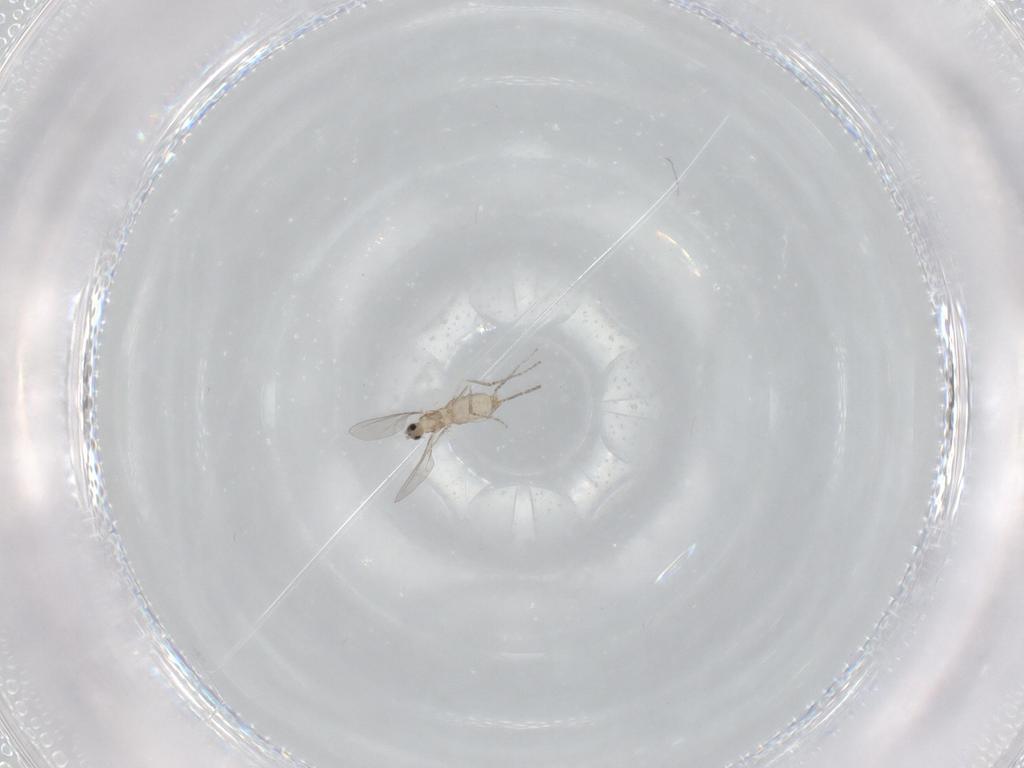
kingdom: Animalia
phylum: Arthropoda
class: Insecta
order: Diptera
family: Cecidomyiidae
